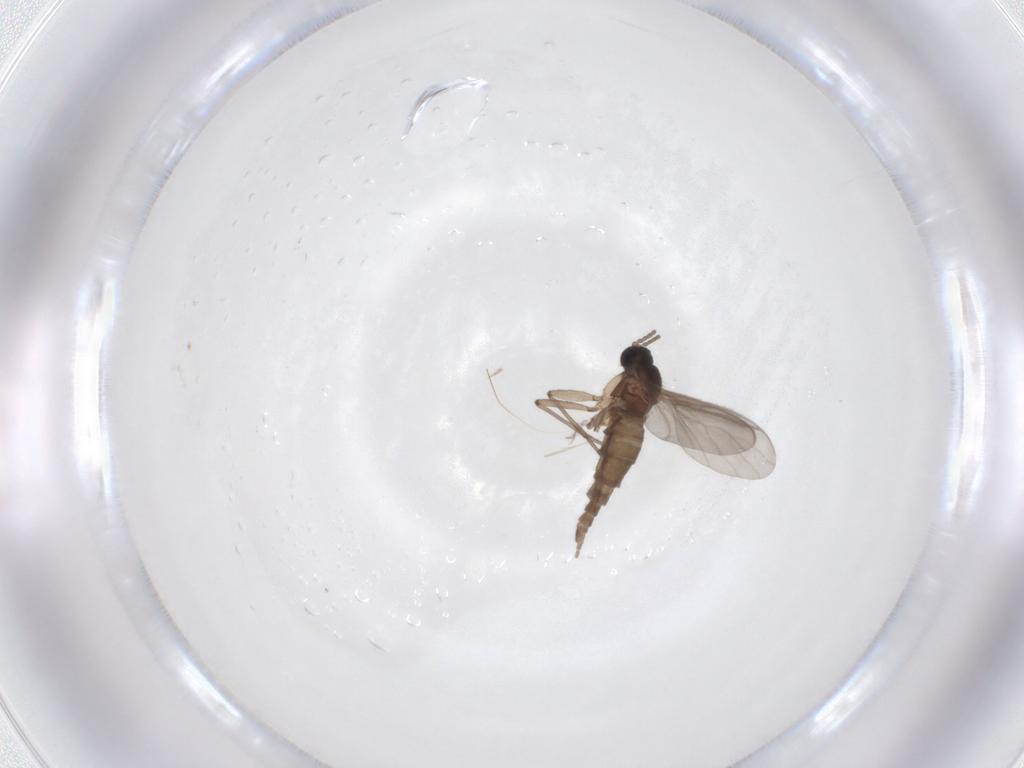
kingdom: Animalia
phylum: Arthropoda
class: Insecta
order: Diptera
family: Sciaridae
